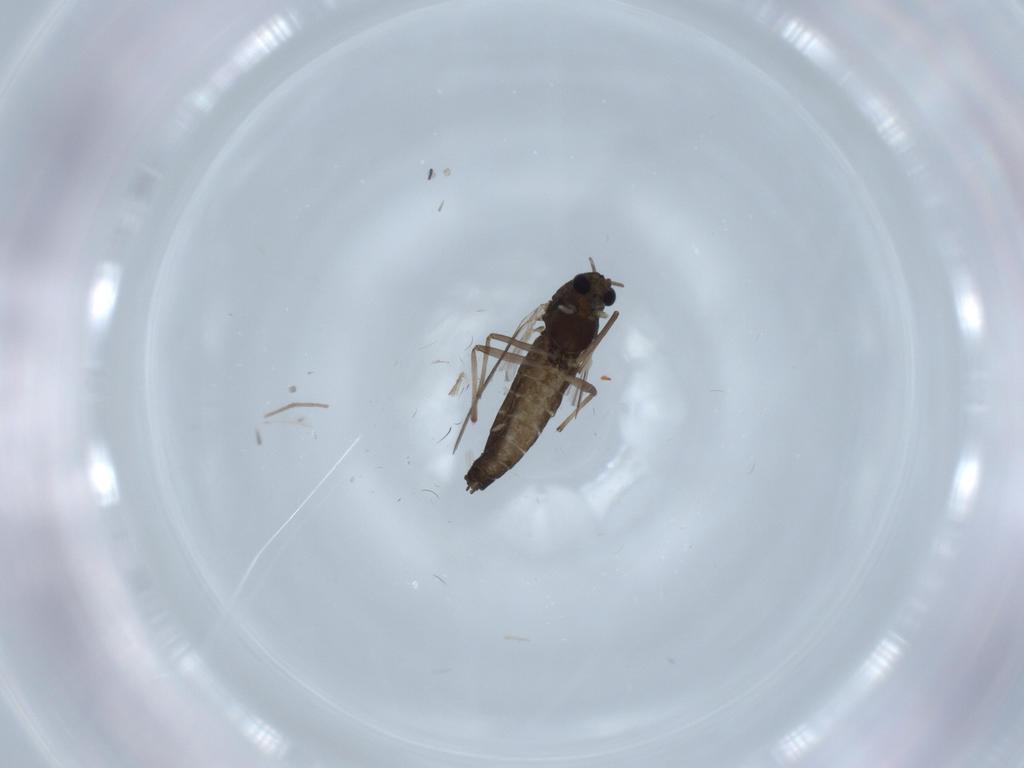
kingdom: Animalia
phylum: Arthropoda
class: Insecta
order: Diptera
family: Chironomidae
